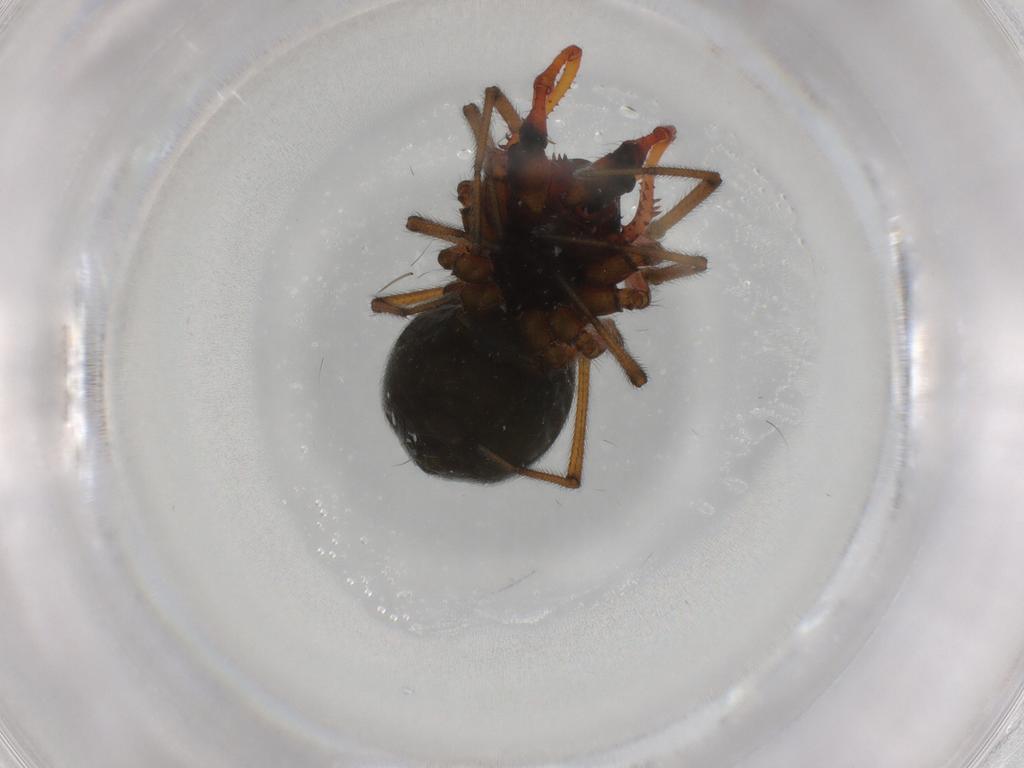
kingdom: Animalia
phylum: Arthropoda
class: Arachnida
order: Araneae
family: Linyphiidae
